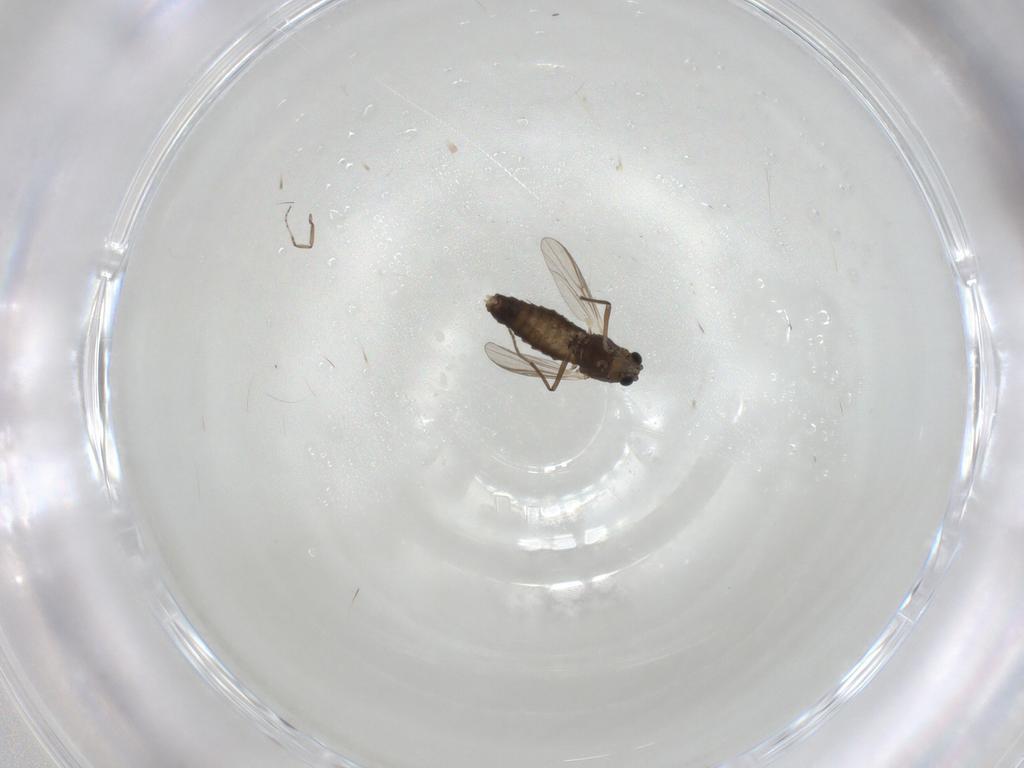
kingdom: Animalia
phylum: Arthropoda
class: Insecta
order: Diptera
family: Chironomidae
